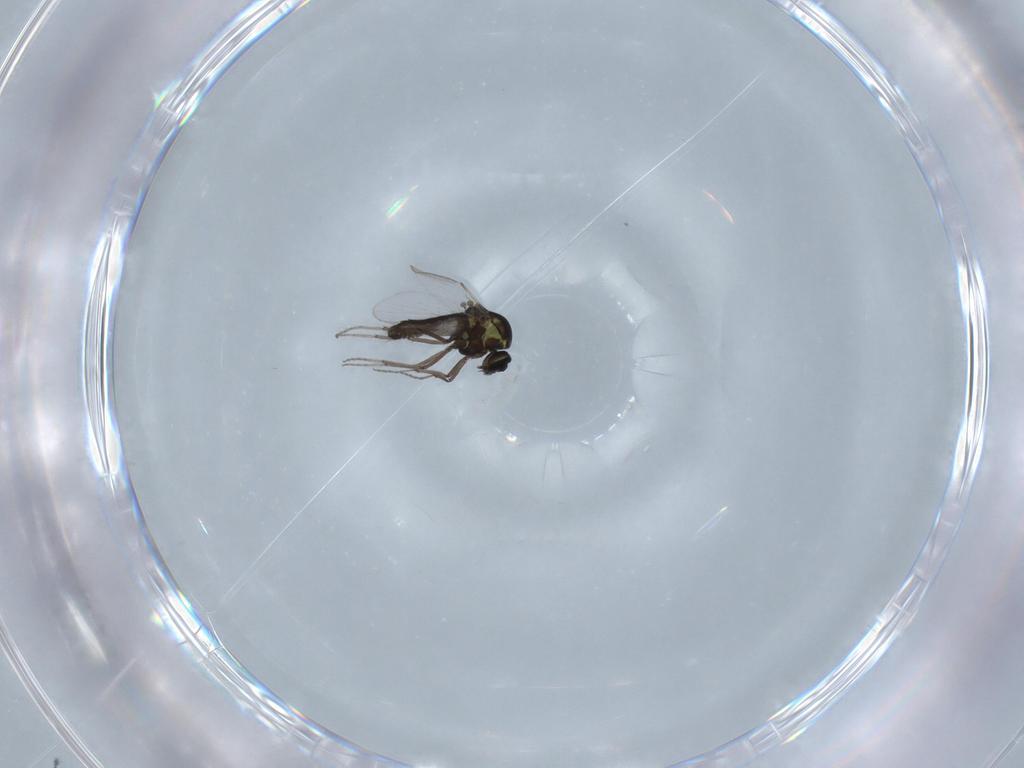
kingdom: Animalia
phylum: Arthropoda
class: Insecta
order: Diptera
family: Ceratopogonidae
